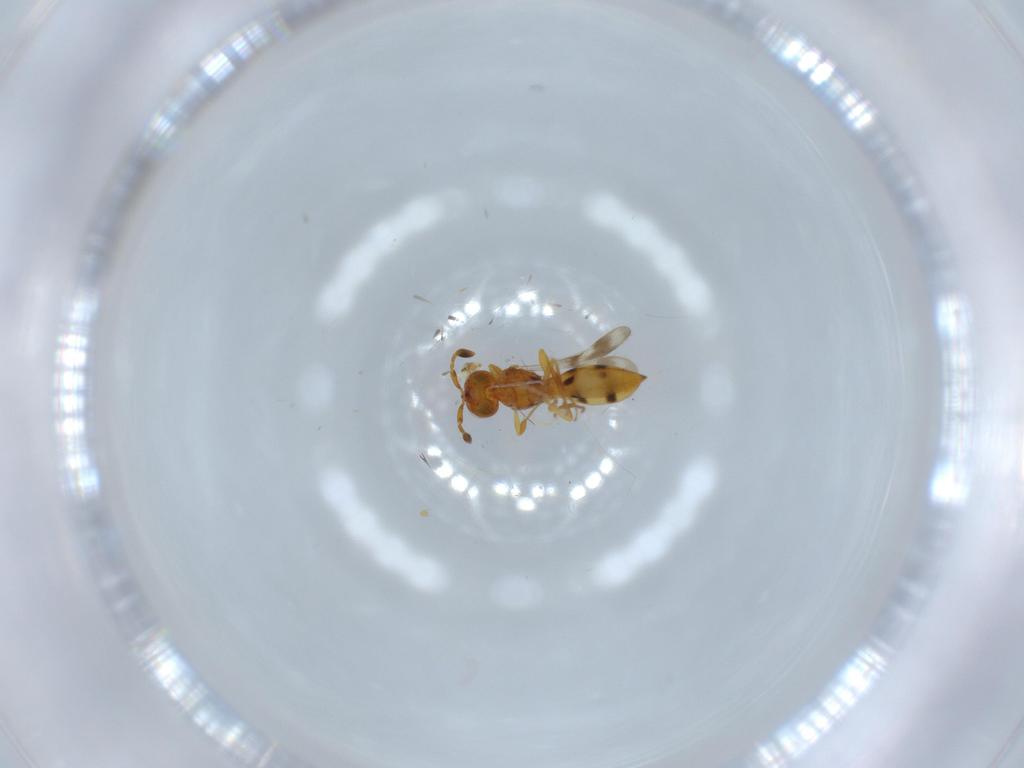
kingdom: Animalia
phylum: Arthropoda
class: Insecta
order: Hymenoptera
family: Scelionidae
